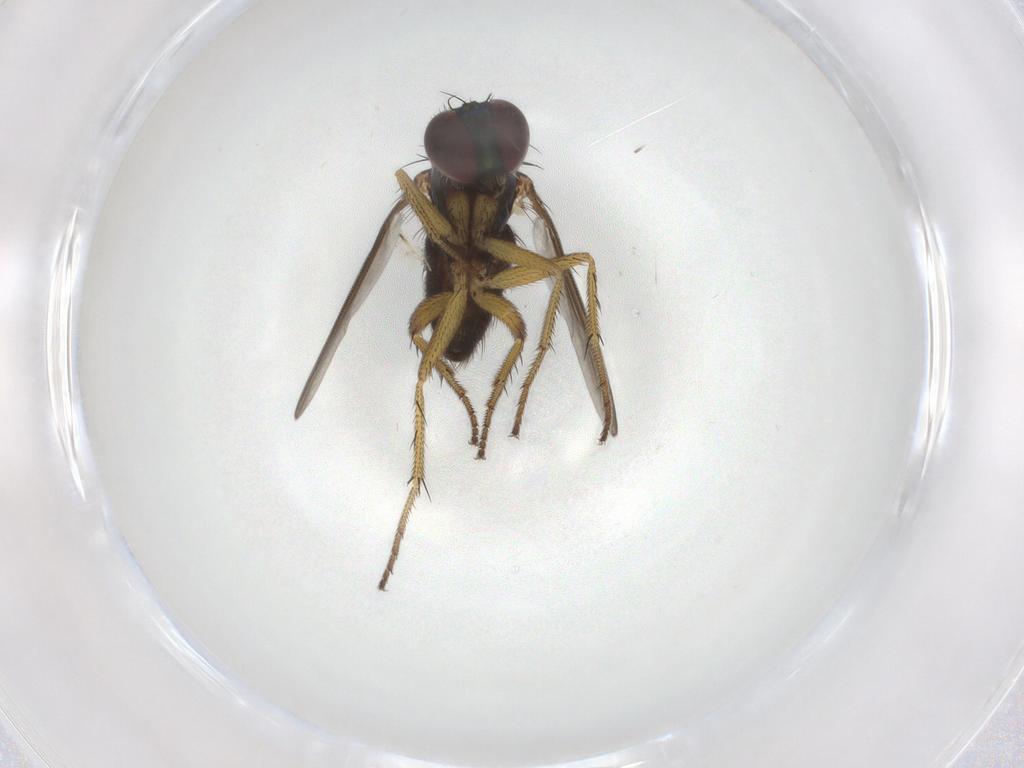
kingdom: Animalia
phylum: Arthropoda
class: Insecta
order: Diptera
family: Dolichopodidae
